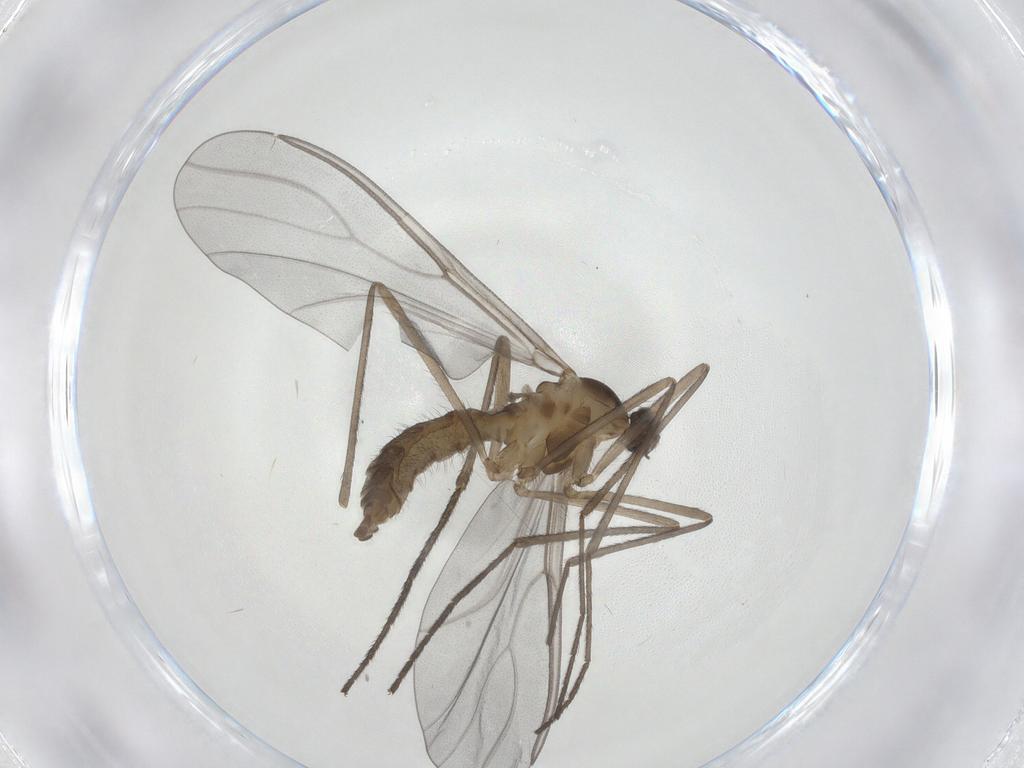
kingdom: Animalia
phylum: Arthropoda
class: Insecta
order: Diptera
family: Cecidomyiidae
